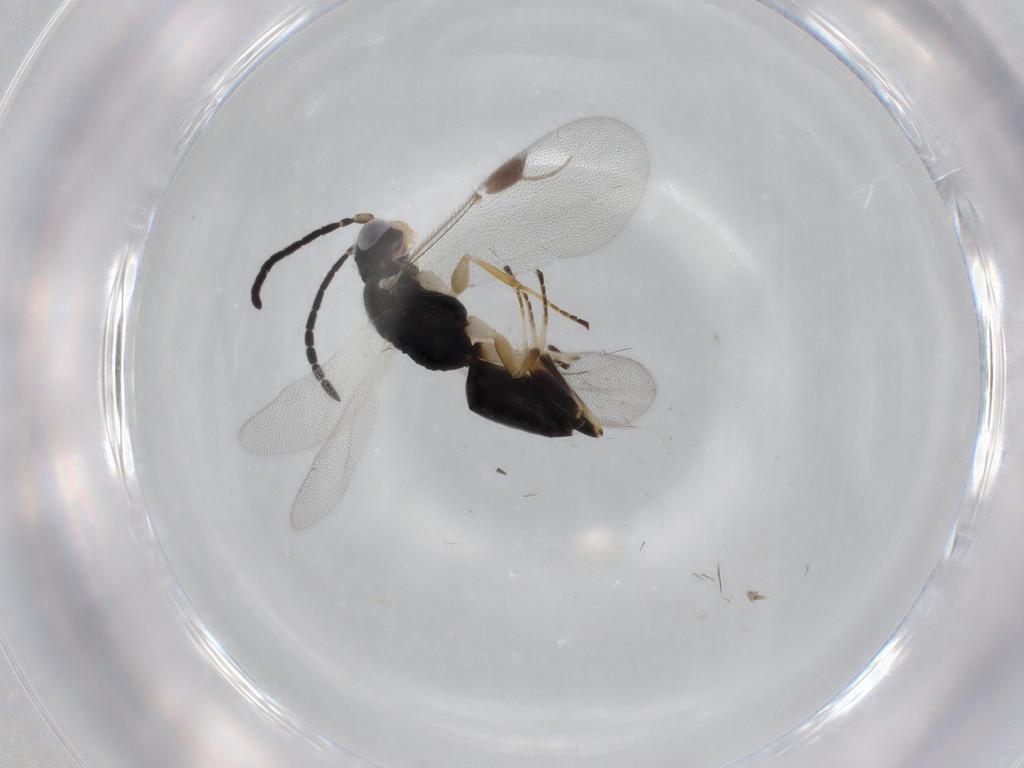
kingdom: Animalia
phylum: Arthropoda
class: Insecta
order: Hymenoptera
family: Dryinidae
